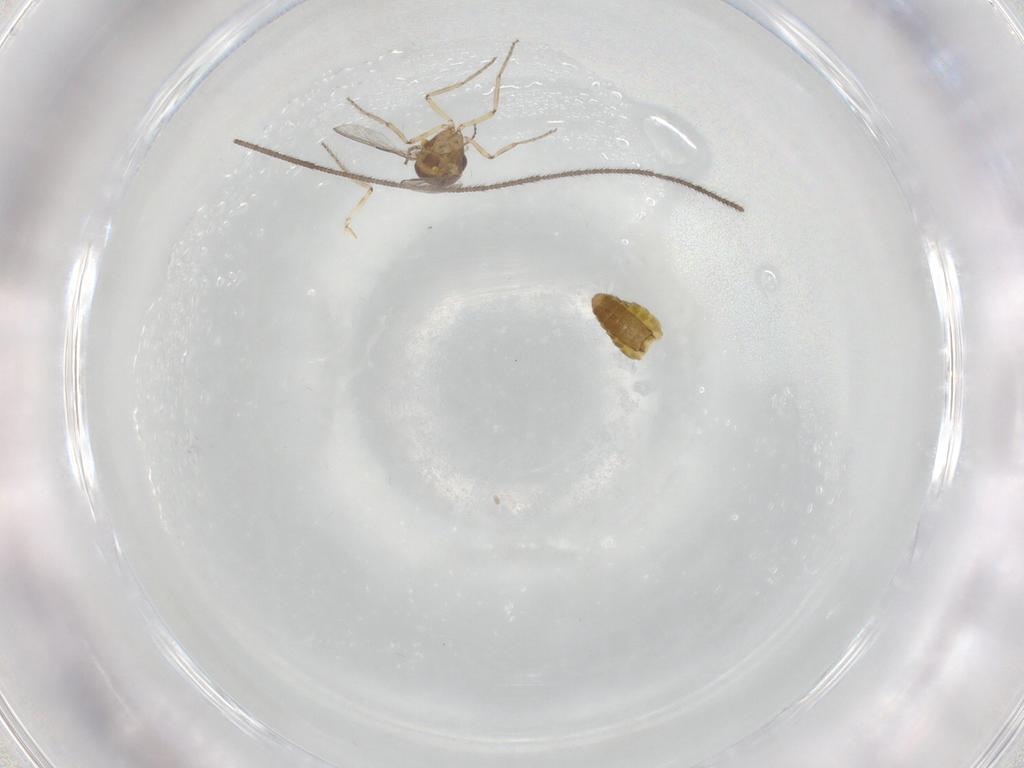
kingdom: Animalia
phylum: Arthropoda
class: Insecta
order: Diptera
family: Ceratopogonidae
